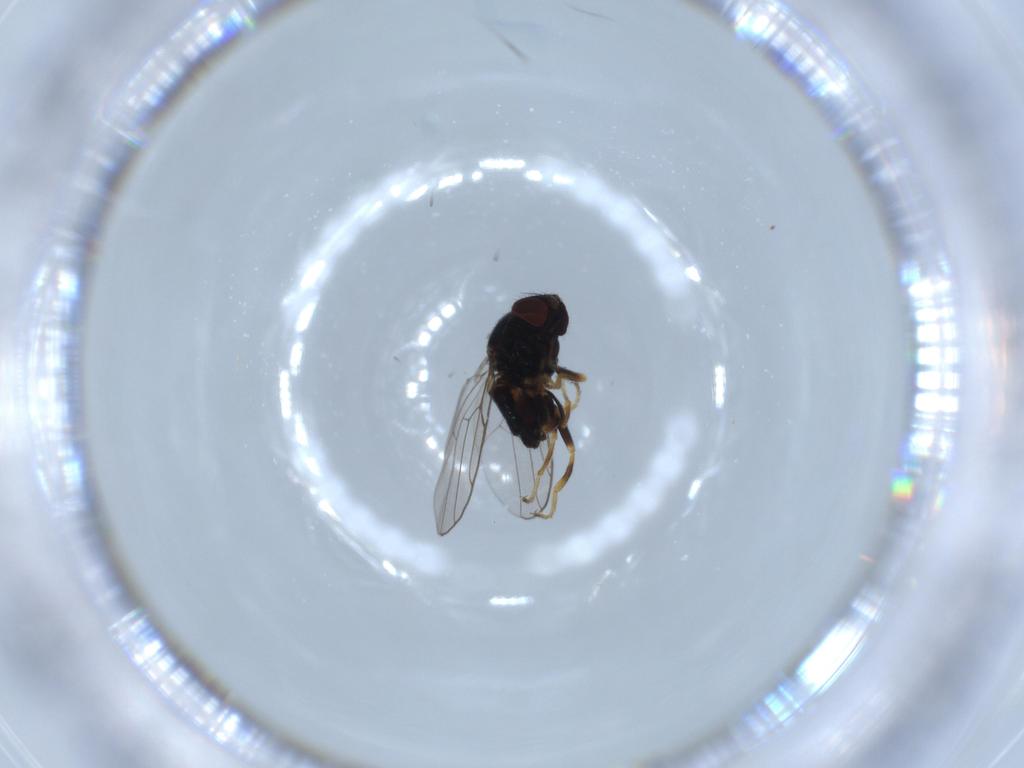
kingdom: Animalia
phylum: Arthropoda
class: Insecta
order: Diptera
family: Chloropidae
